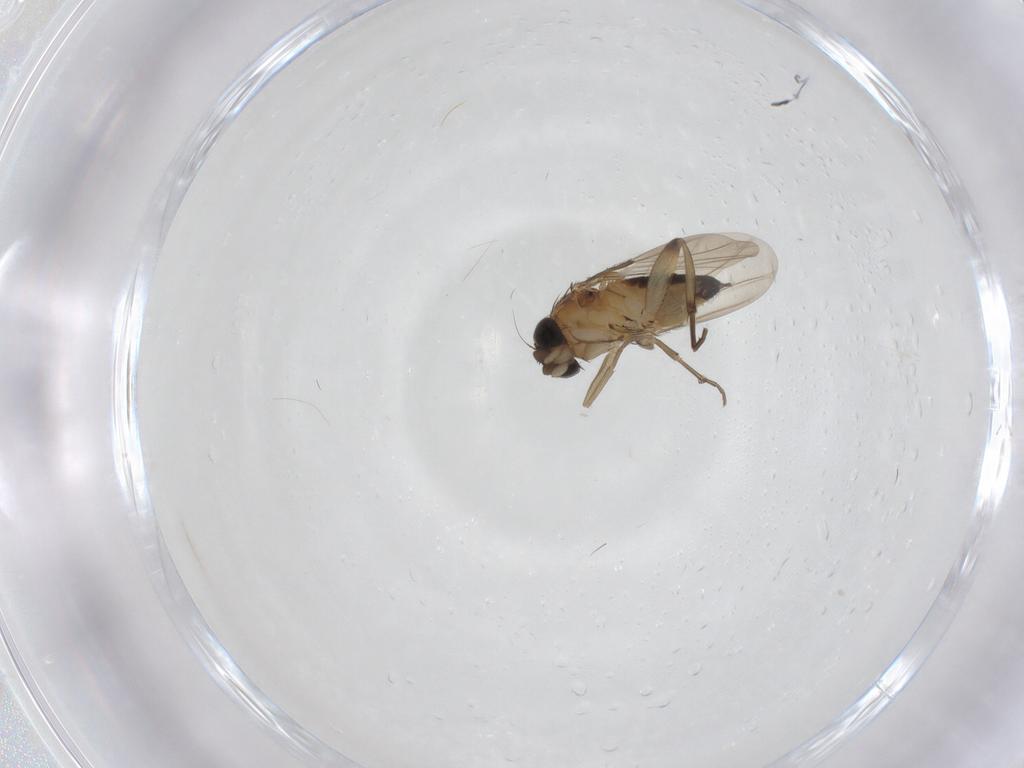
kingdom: Animalia
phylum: Arthropoda
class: Insecta
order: Diptera
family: Phoridae
